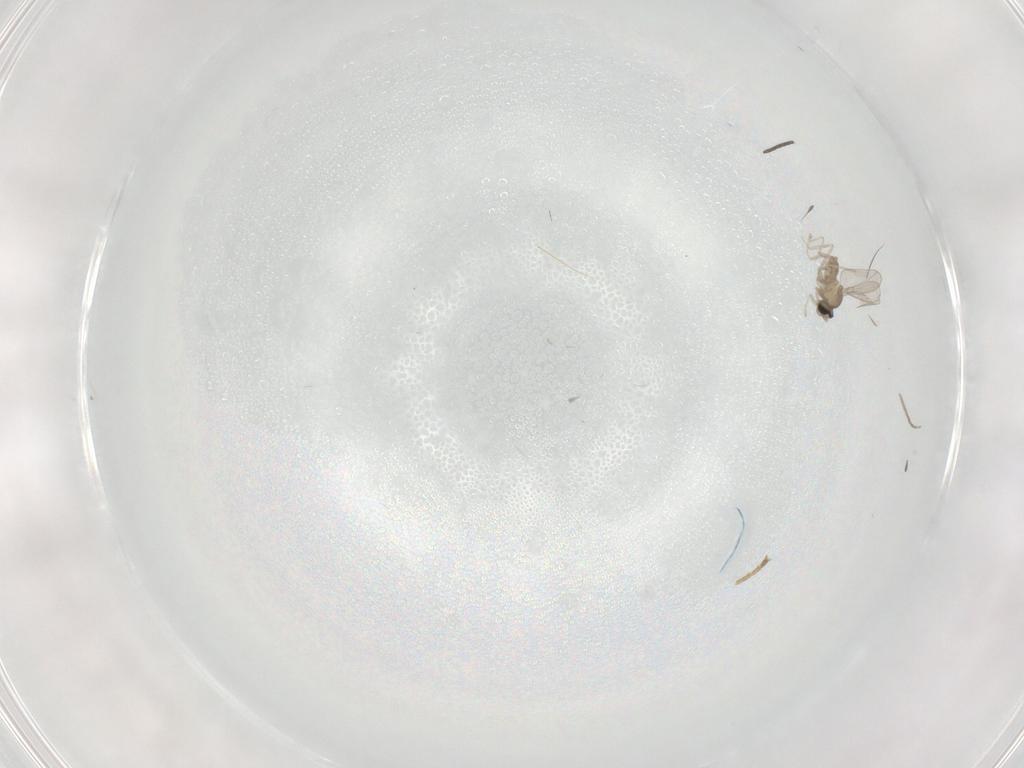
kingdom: Animalia
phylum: Arthropoda
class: Insecta
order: Diptera
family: Hybotidae
